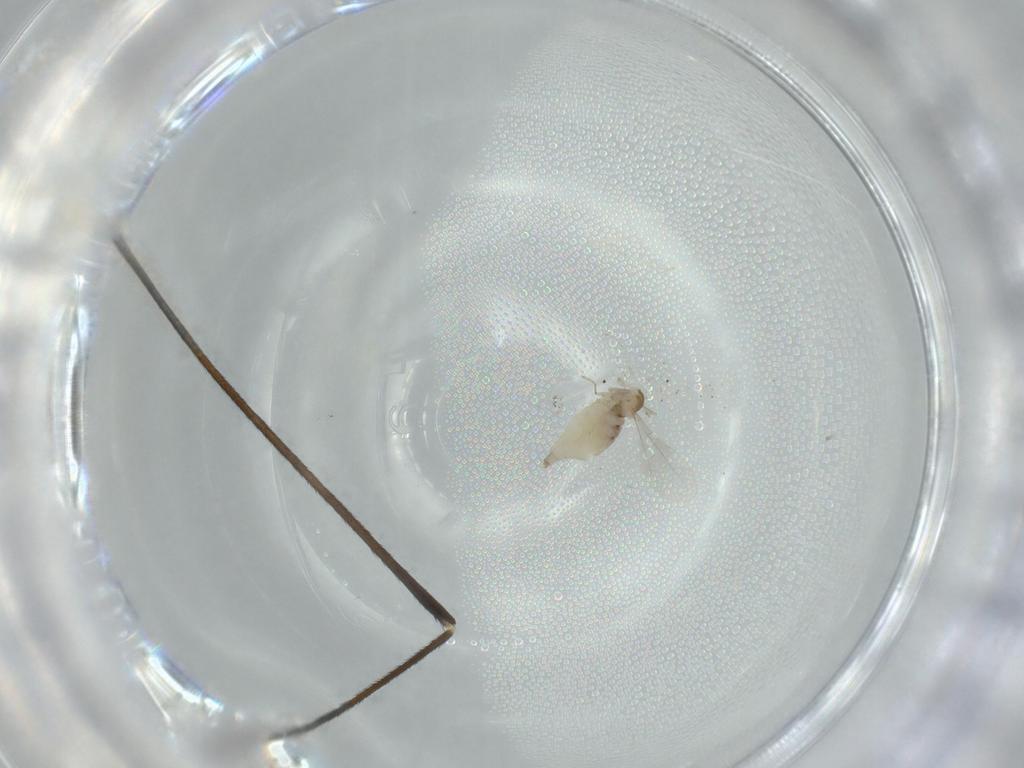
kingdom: Animalia
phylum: Arthropoda
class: Insecta
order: Diptera
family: Cecidomyiidae
